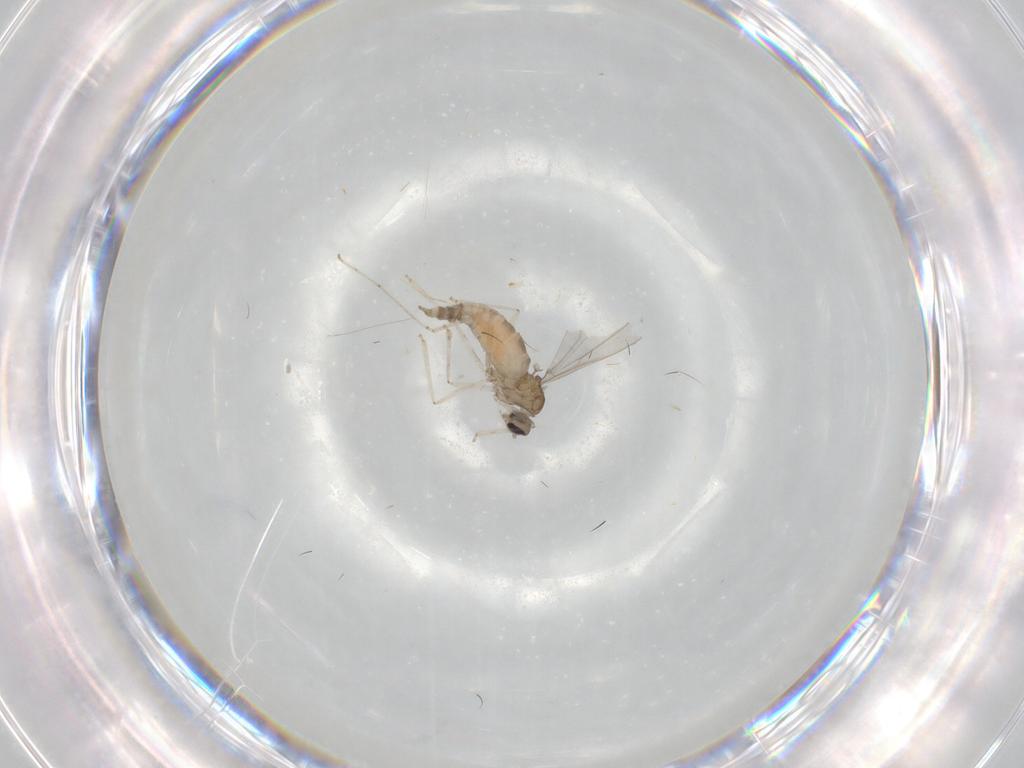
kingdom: Animalia
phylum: Arthropoda
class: Insecta
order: Diptera
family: Cecidomyiidae
